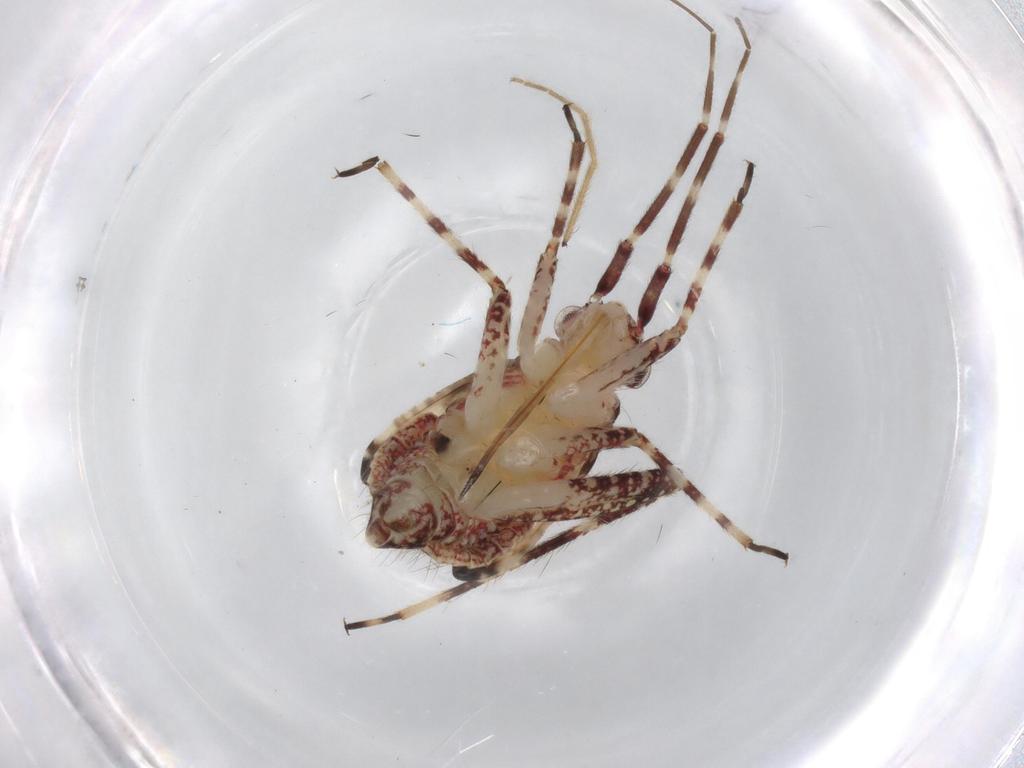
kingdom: Animalia
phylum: Arthropoda
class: Insecta
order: Hemiptera
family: Miridae
